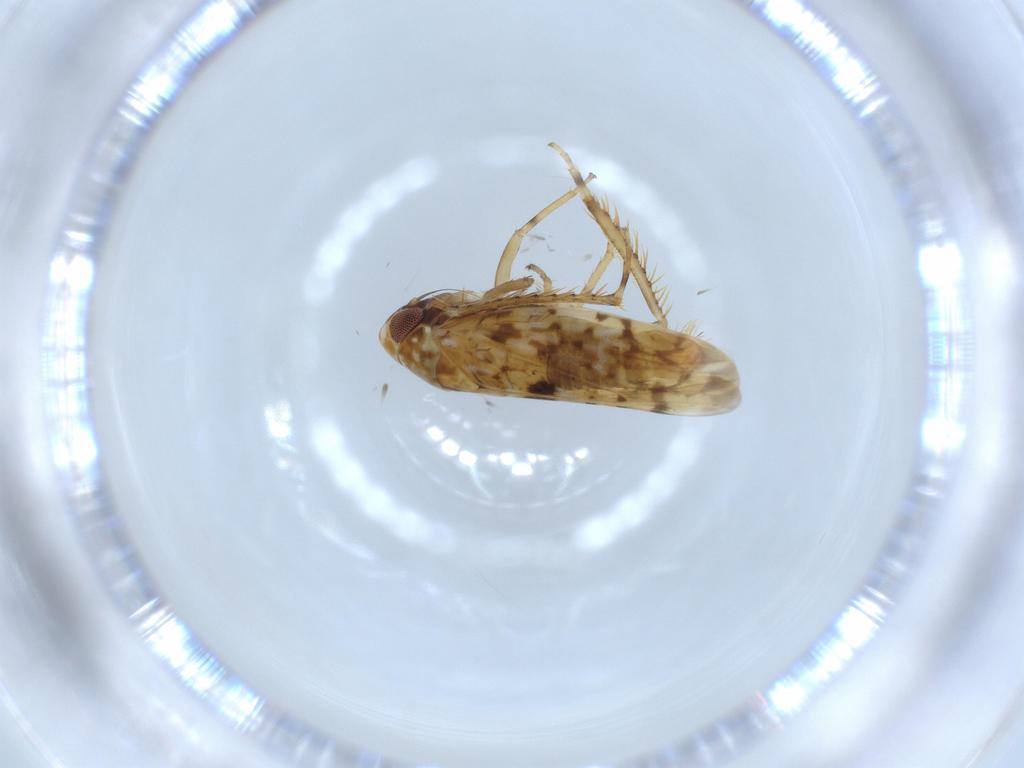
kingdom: Animalia
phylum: Arthropoda
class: Insecta
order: Hemiptera
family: Cicadellidae
